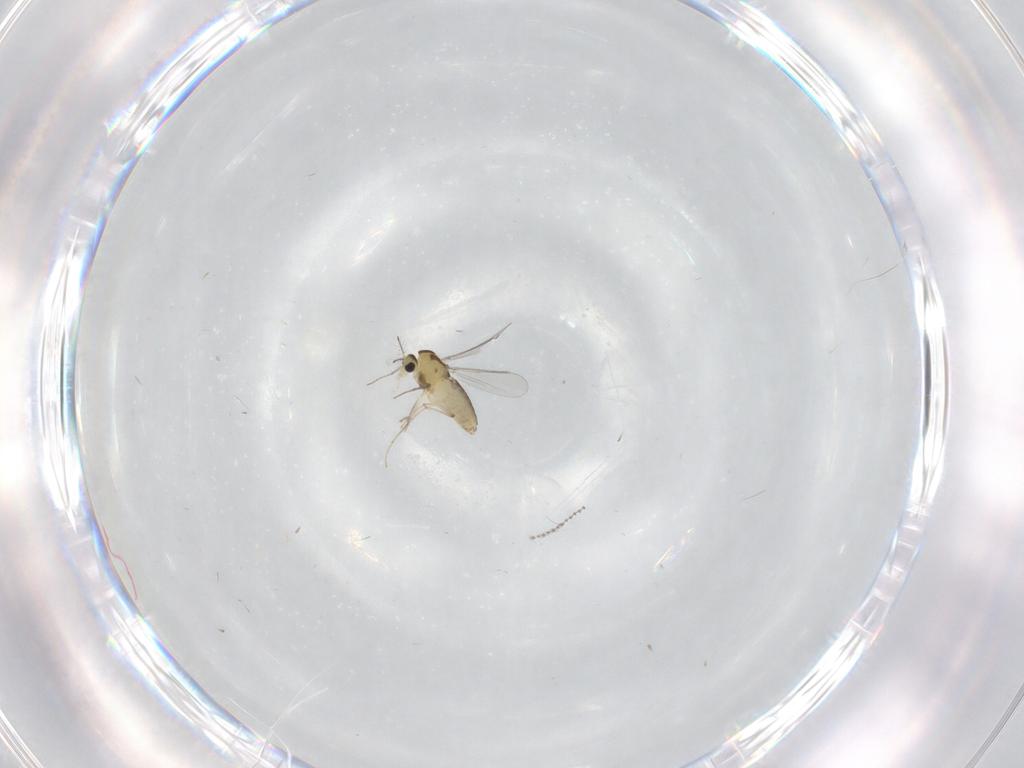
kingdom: Animalia
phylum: Arthropoda
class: Insecta
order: Diptera
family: Chironomidae
